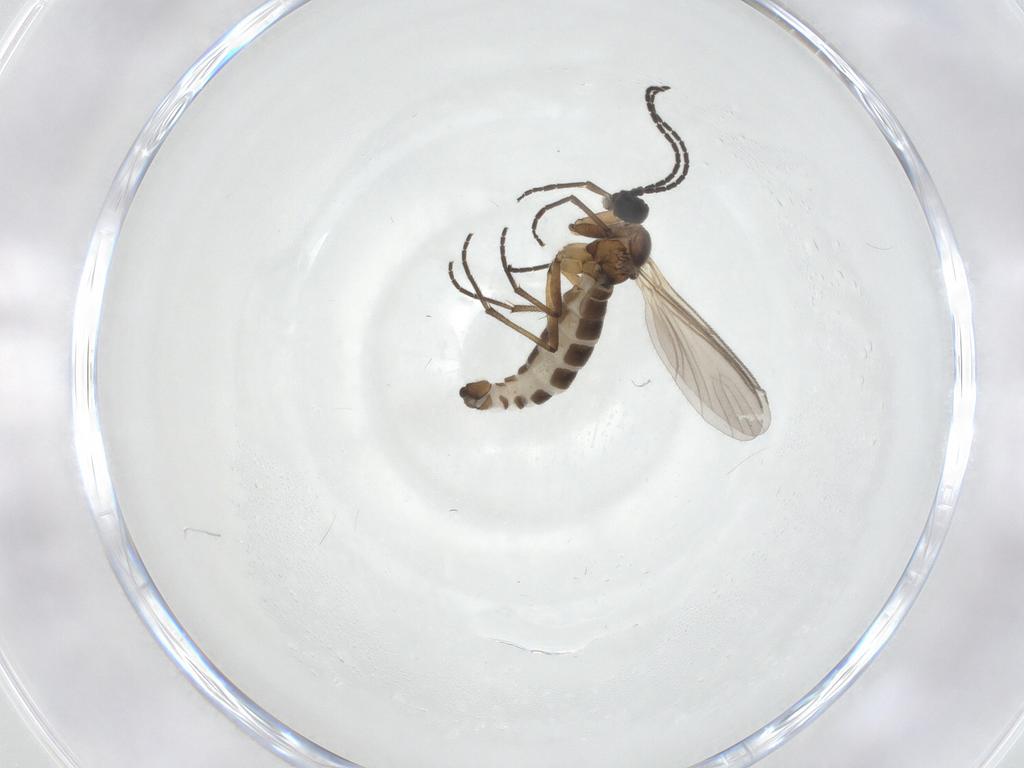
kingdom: Animalia
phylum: Arthropoda
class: Insecta
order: Diptera
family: Sciaridae
